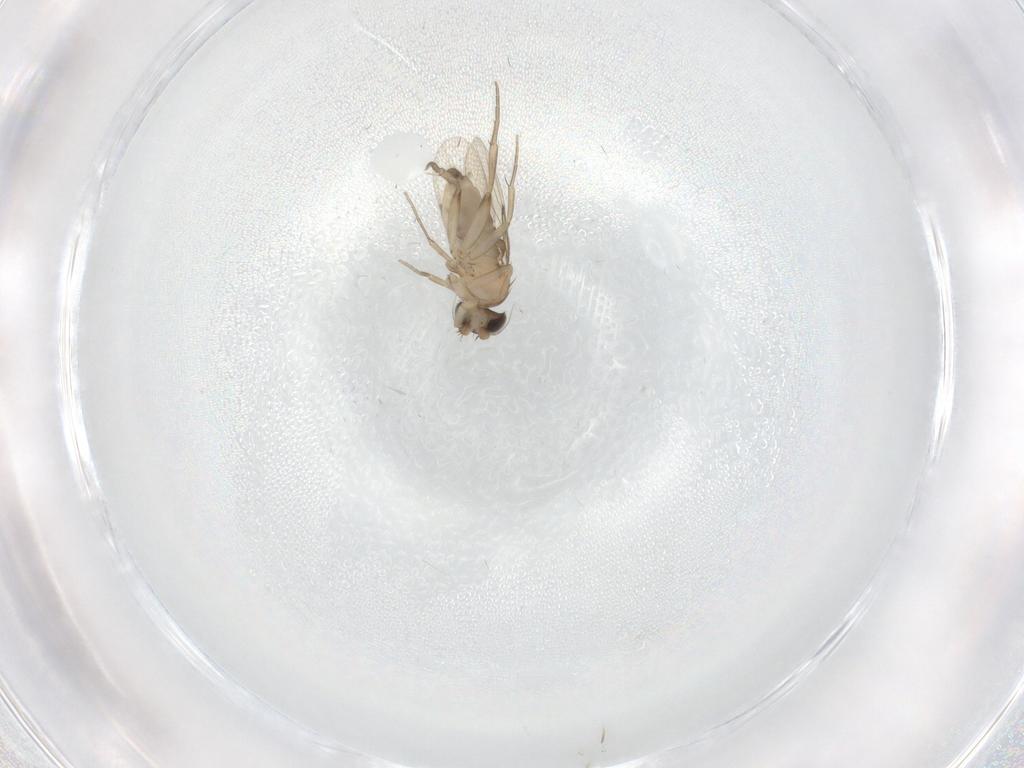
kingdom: Animalia
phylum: Arthropoda
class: Insecta
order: Diptera
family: Phoridae
